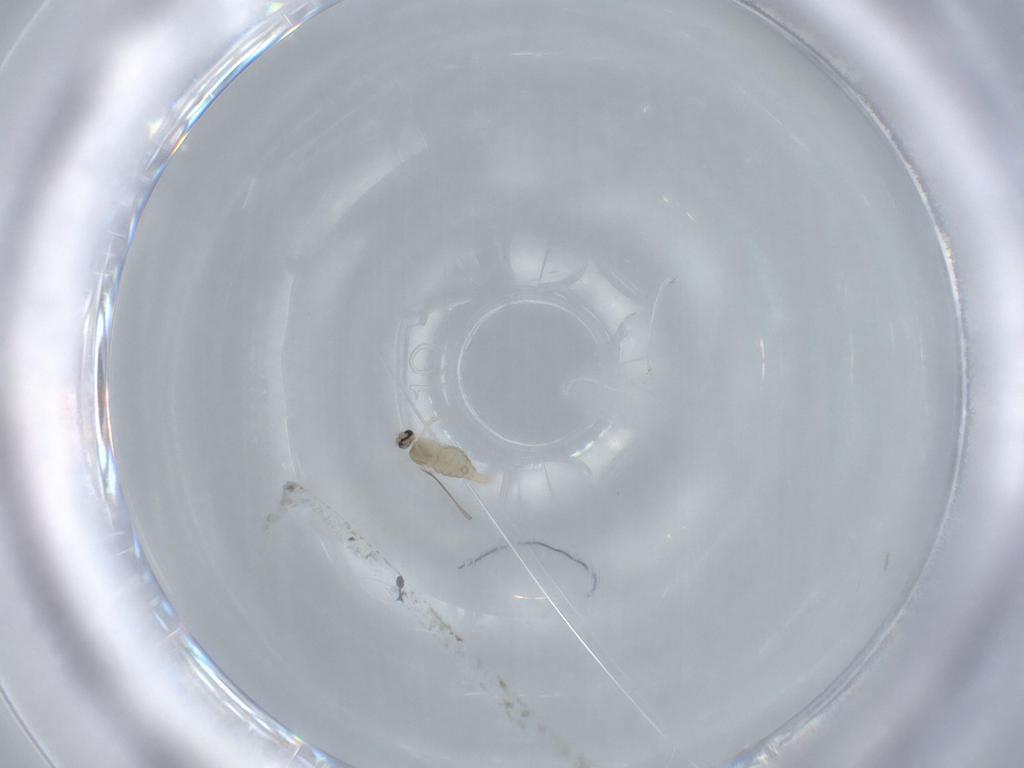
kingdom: Animalia
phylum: Arthropoda
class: Insecta
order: Diptera
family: Cecidomyiidae
